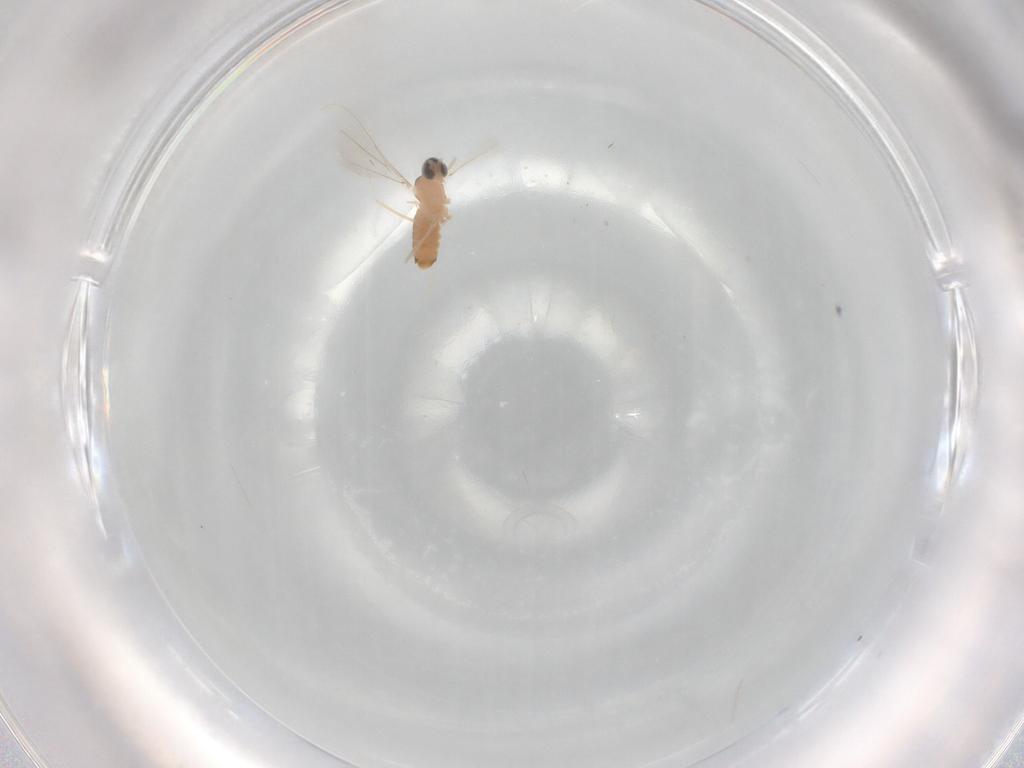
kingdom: Animalia
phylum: Arthropoda
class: Insecta
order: Diptera
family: Cecidomyiidae
